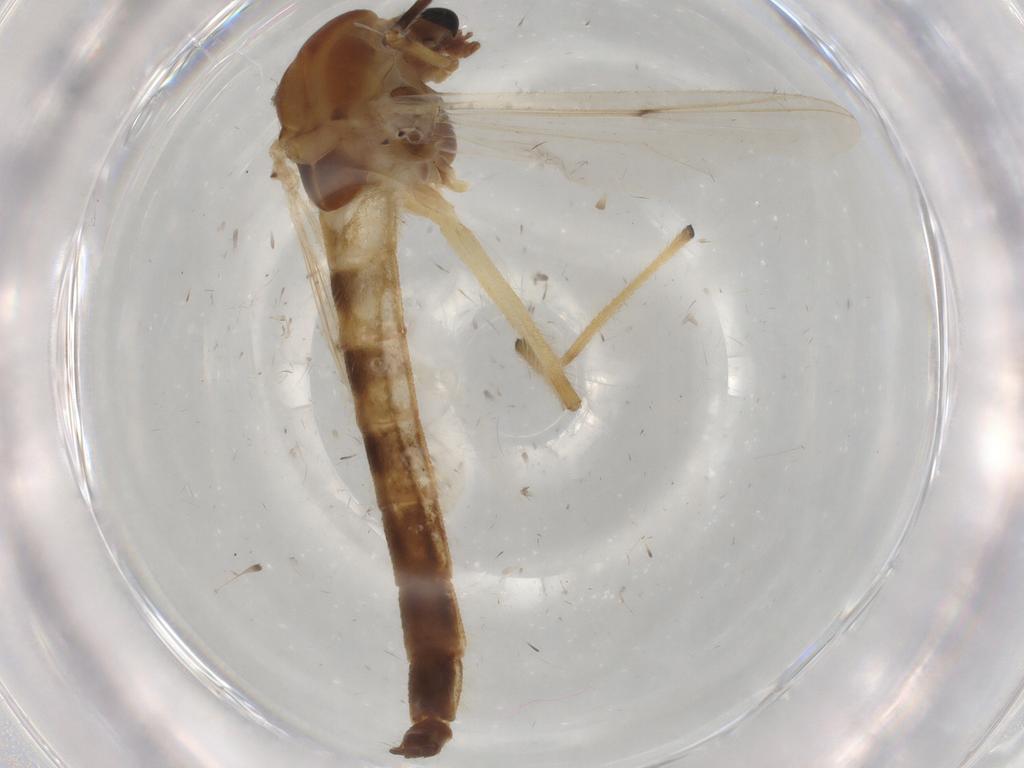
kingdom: Animalia
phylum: Arthropoda
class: Insecta
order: Diptera
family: Chironomidae
